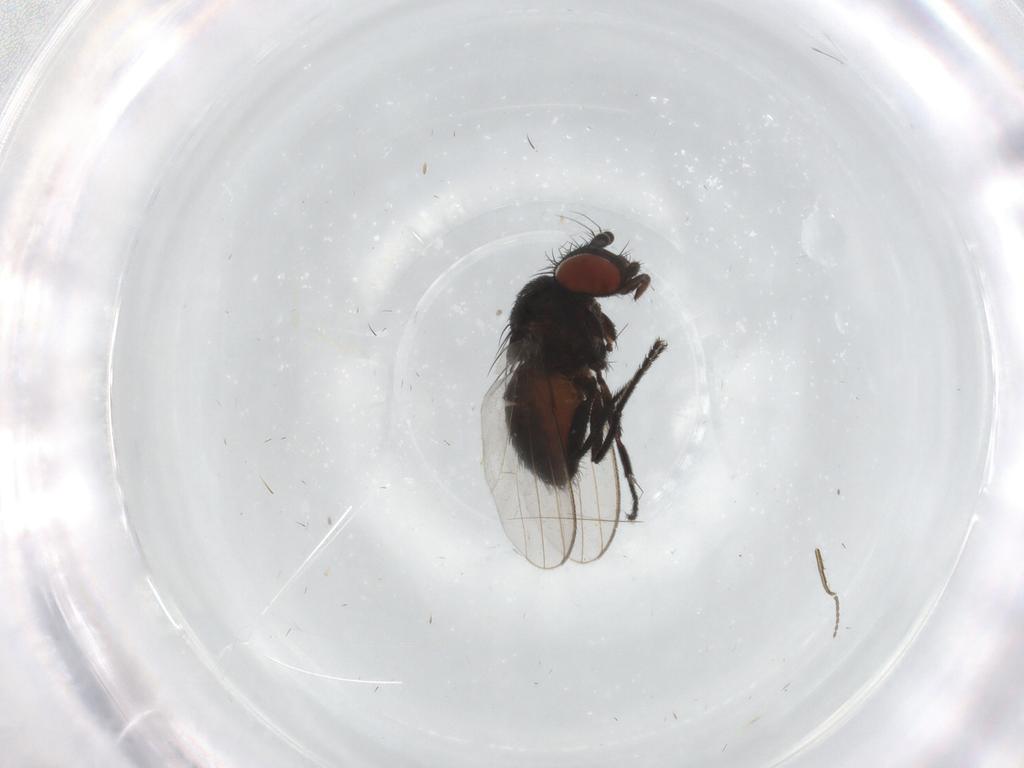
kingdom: Animalia
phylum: Arthropoda
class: Insecta
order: Diptera
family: Milichiidae
